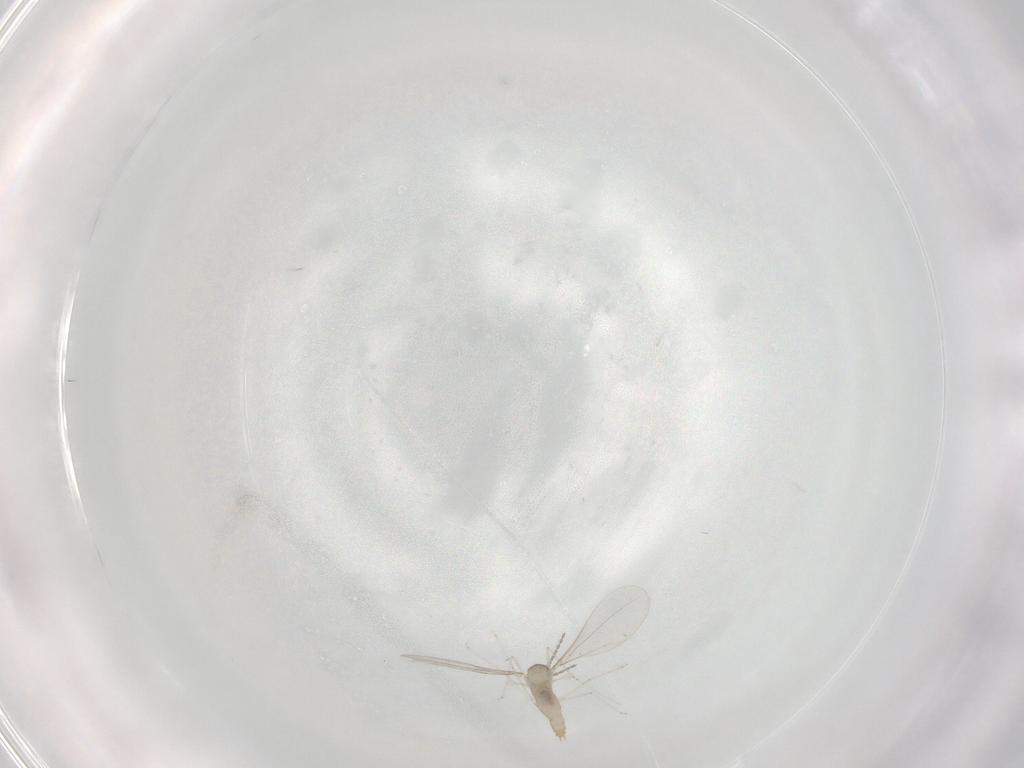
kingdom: Animalia
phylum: Arthropoda
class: Insecta
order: Diptera
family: Cecidomyiidae
